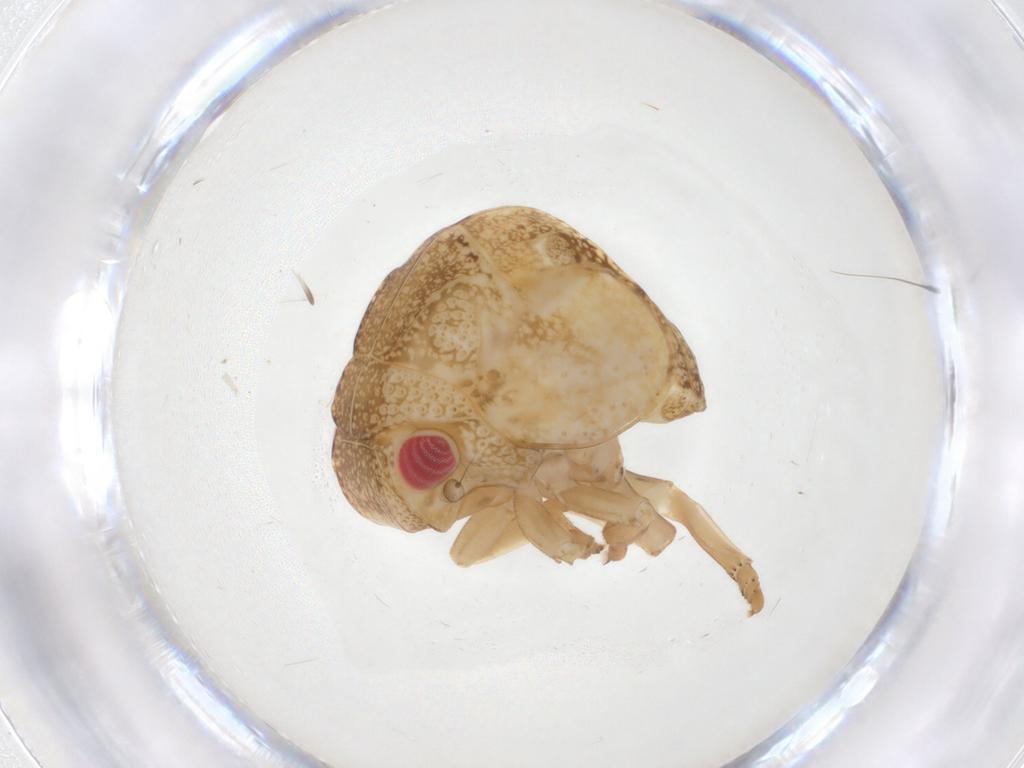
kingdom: Animalia
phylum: Arthropoda
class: Insecta
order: Hemiptera
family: Acanaloniidae
